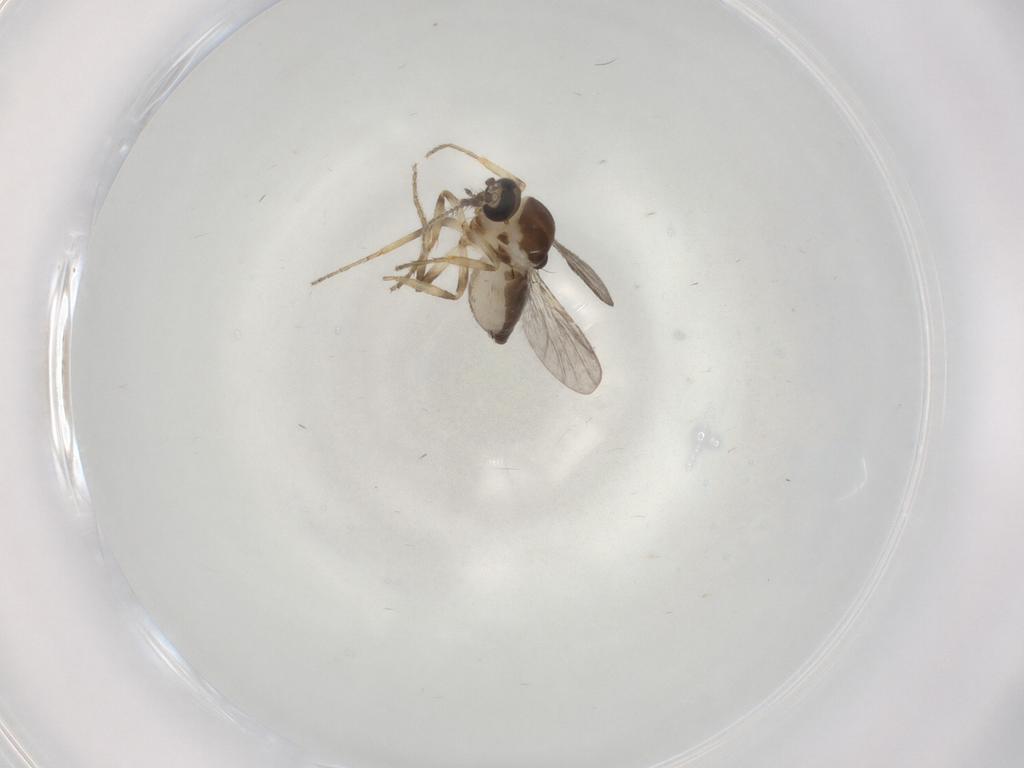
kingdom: Animalia
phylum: Arthropoda
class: Insecta
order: Diptera
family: Ceratopogonidae
